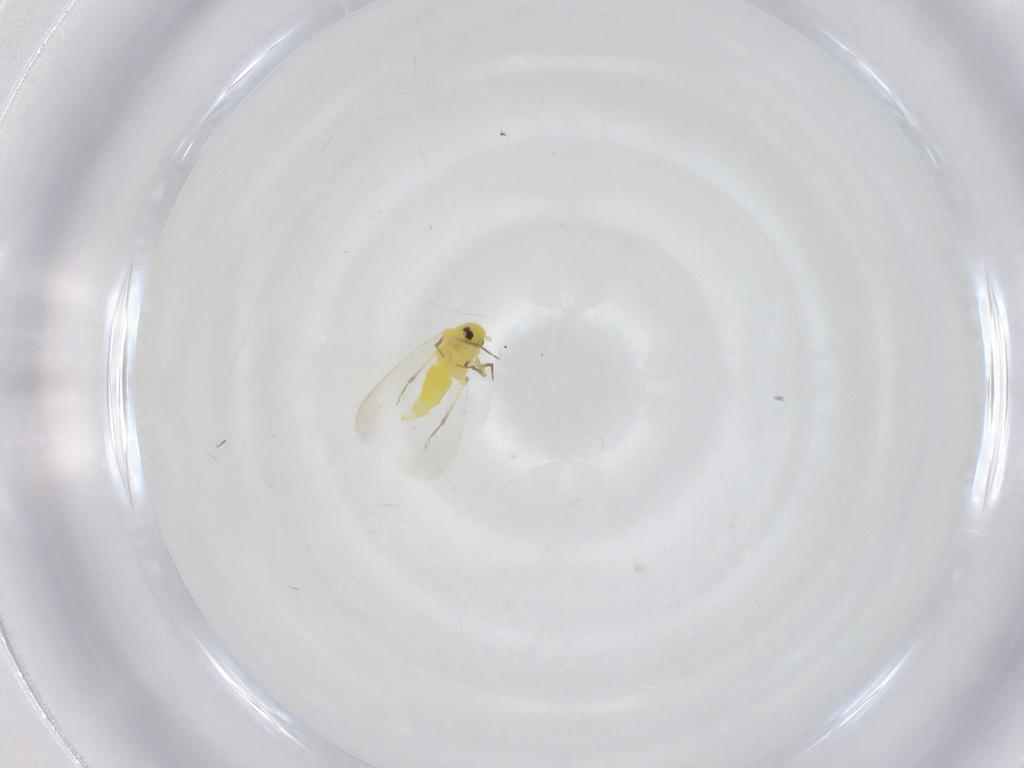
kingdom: Animalia
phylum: Arthropoda
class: Insecta
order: Hemiptera
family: Aleyrodidae
